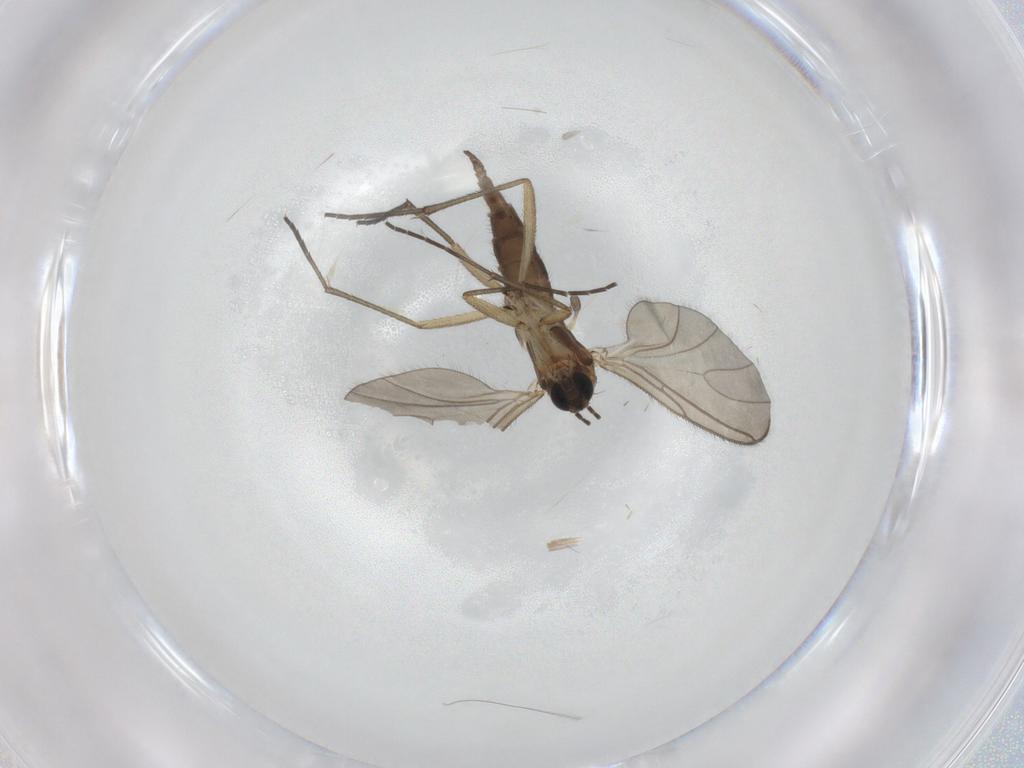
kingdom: Animalia
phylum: Arthropoda
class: Insecta
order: Diptera
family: Sciaridae
